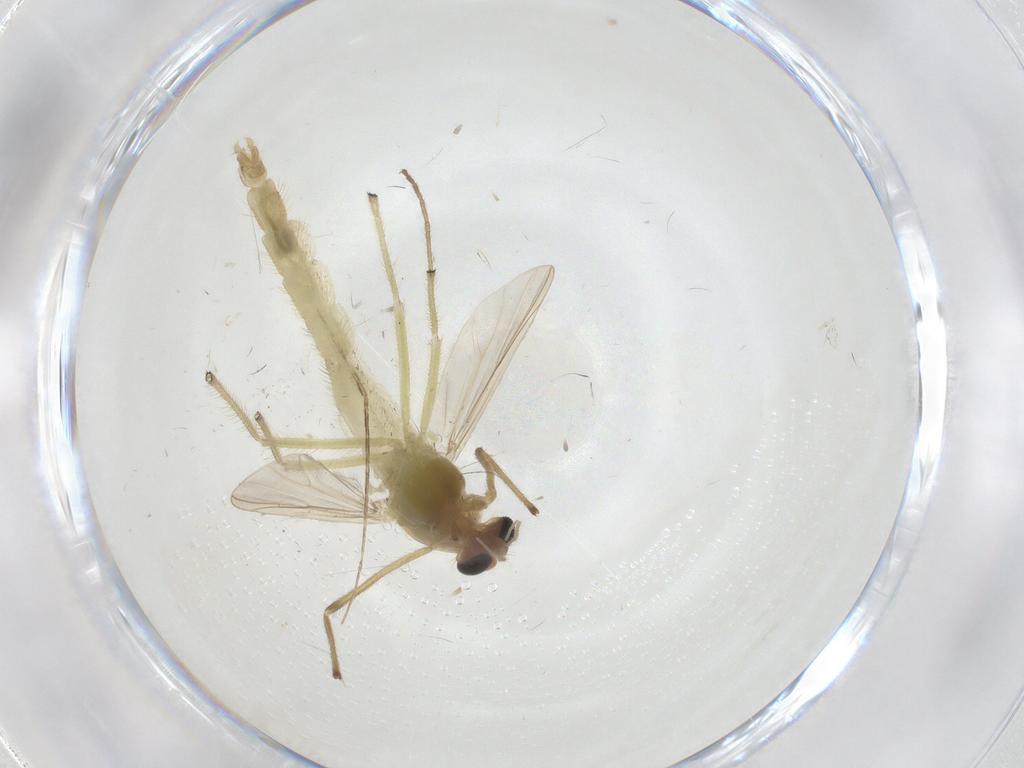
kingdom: Animalia
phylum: Arthropoda
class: Insecta
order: Diptera
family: Chironomidae
